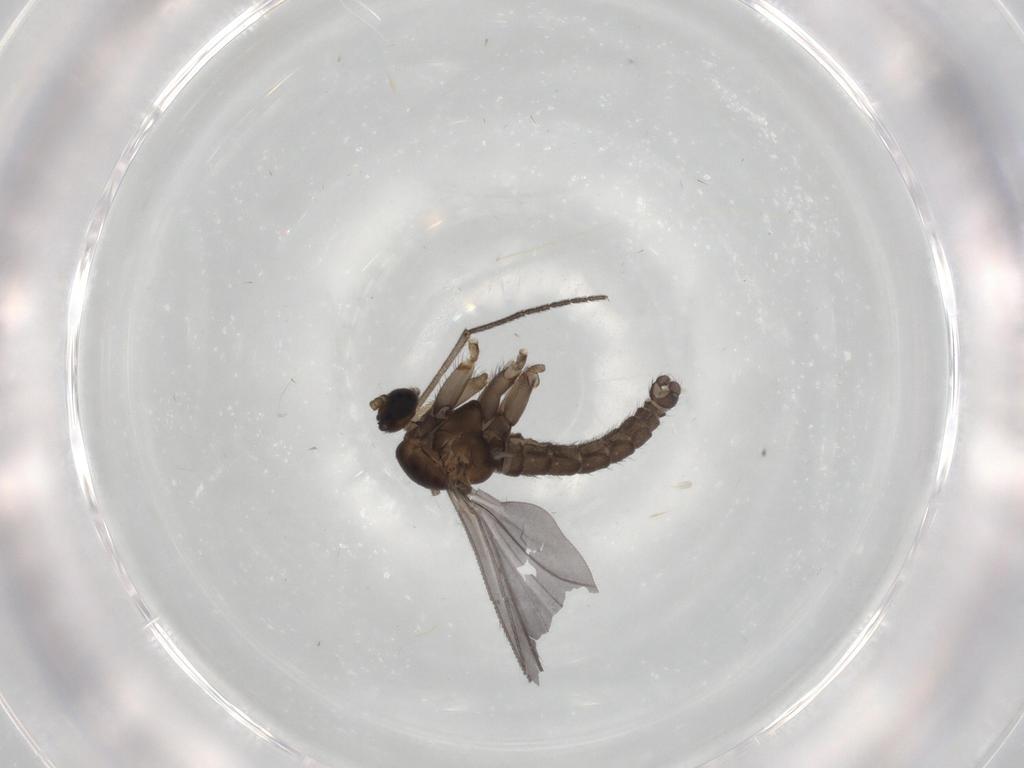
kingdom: Animalia
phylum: Arthropoda
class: Insecta
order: Diptera
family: Sciaridae
